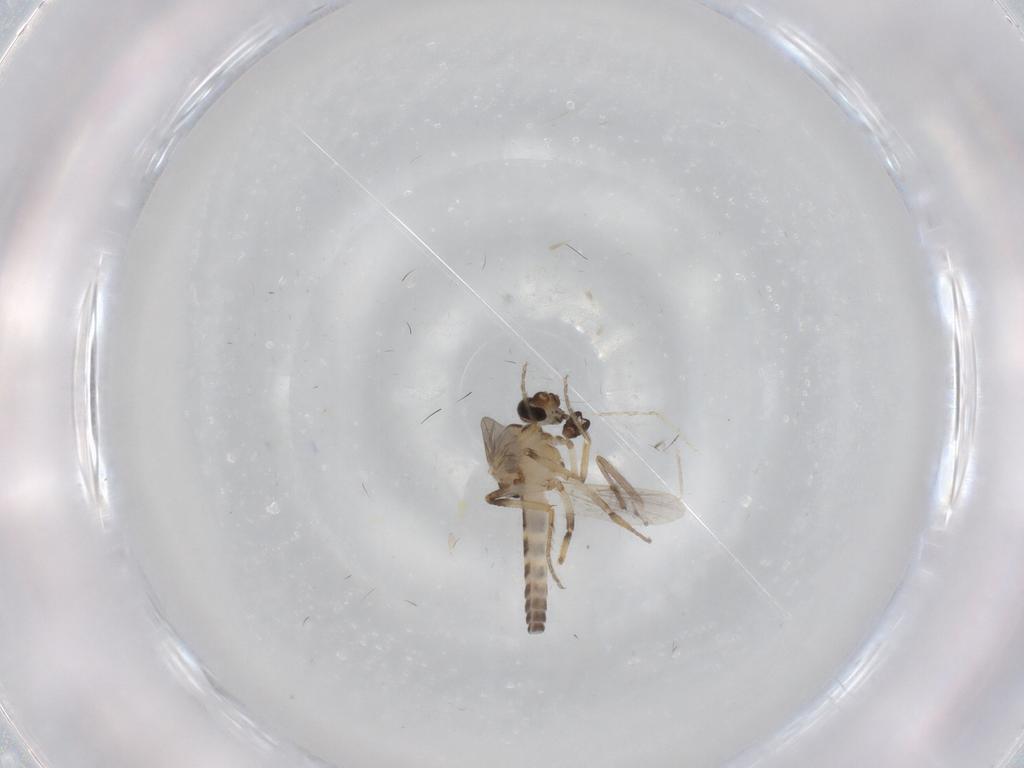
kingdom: Animalia
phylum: Arthropoda
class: Insecta
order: Diptera
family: Ceratopogonidae
